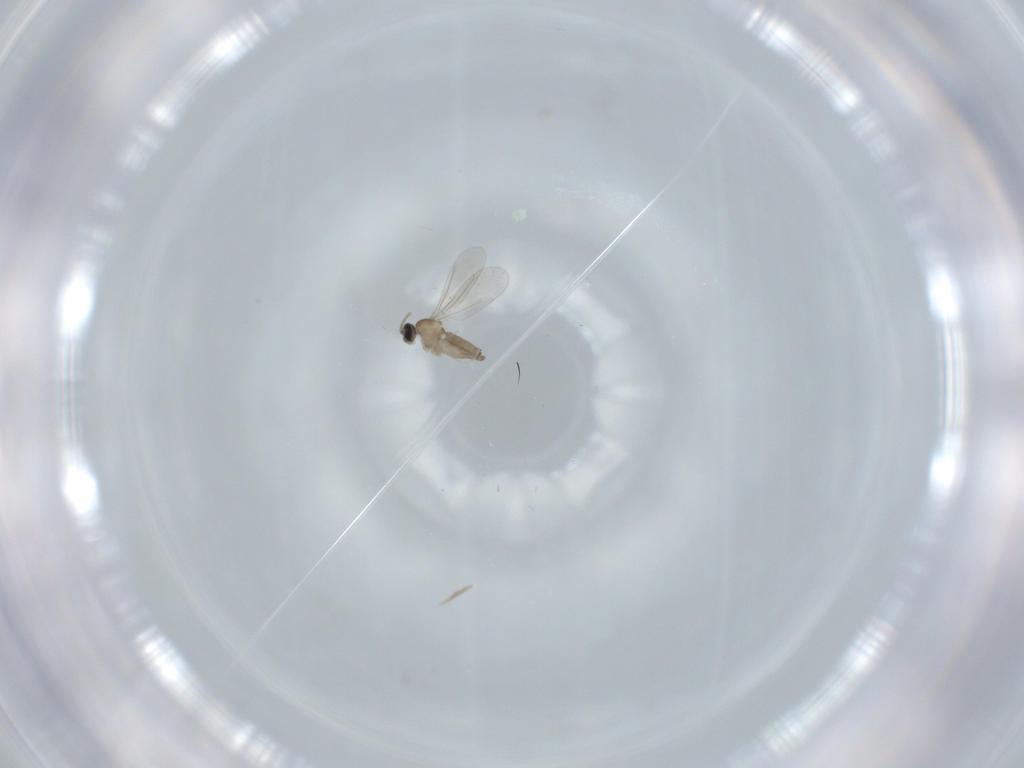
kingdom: Animalia
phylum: Arthropoda
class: Insecta
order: Diptera
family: Cecidomyiidae
